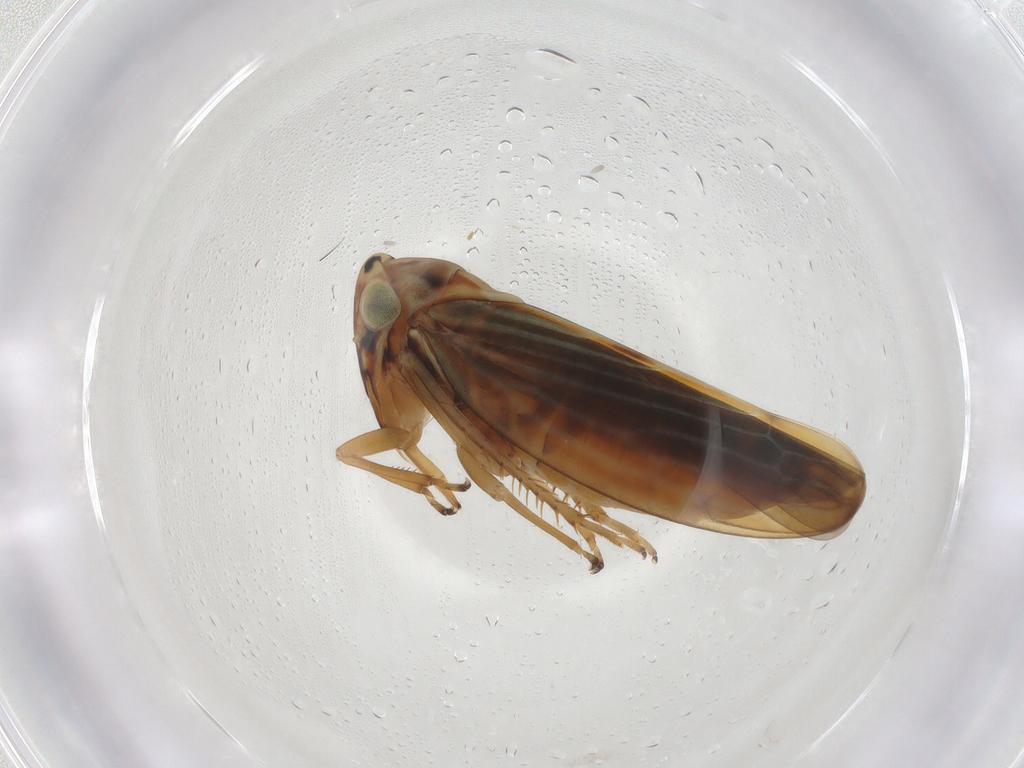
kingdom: Animalia
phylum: Arthropoda
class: Insecta
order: Hemiptera
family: Cicadellidae
